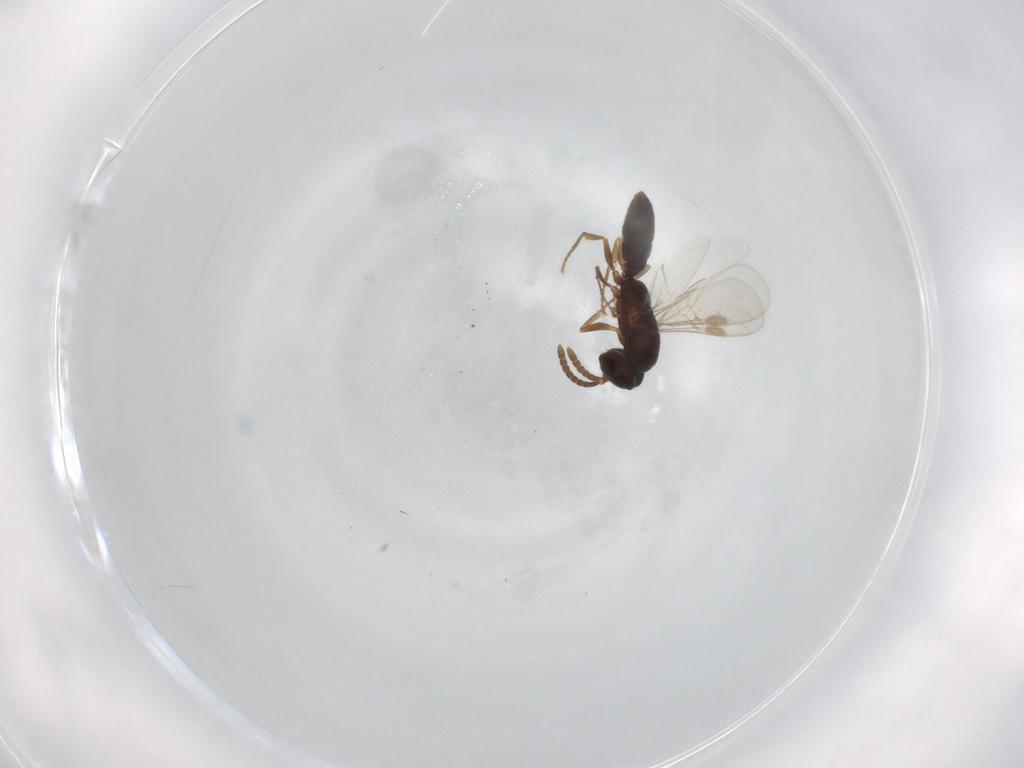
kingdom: Animalia
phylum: Arthropoda
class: Insecta
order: Hymenoptera
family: Formicidae
